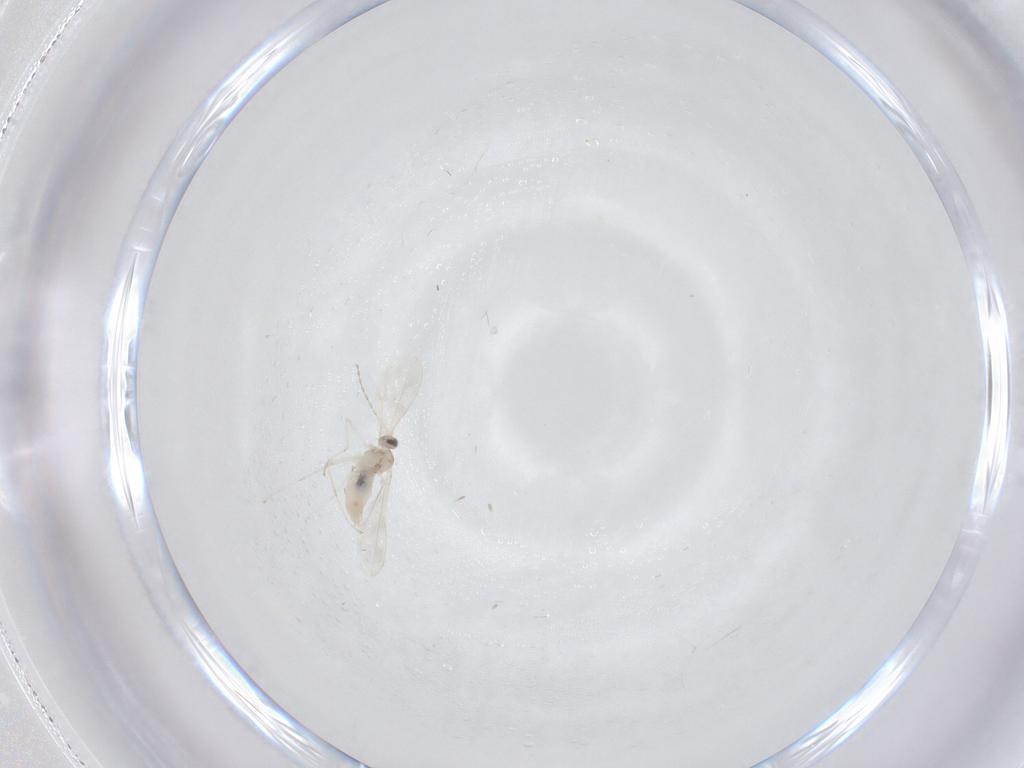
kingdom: Animalia
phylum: Arthropoda
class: Insecta
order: Diptera
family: Cecidomyiidae
